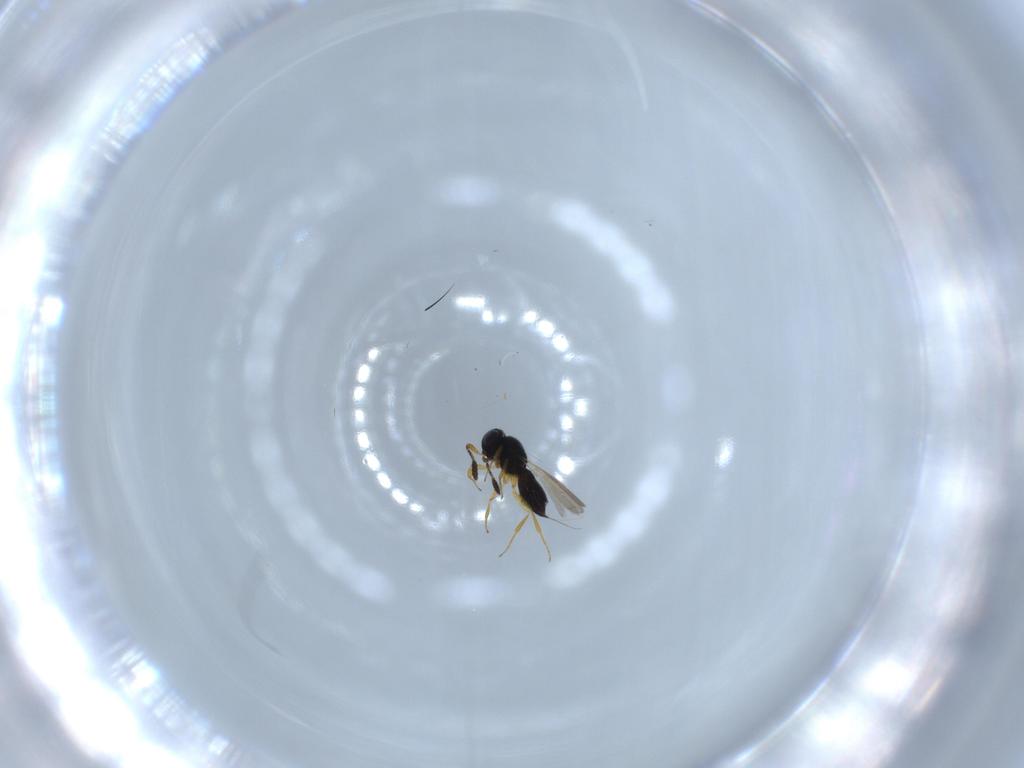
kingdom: Animalia
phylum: Arthropoda
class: Insecta
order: Hymenoptera
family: Scelionidae
